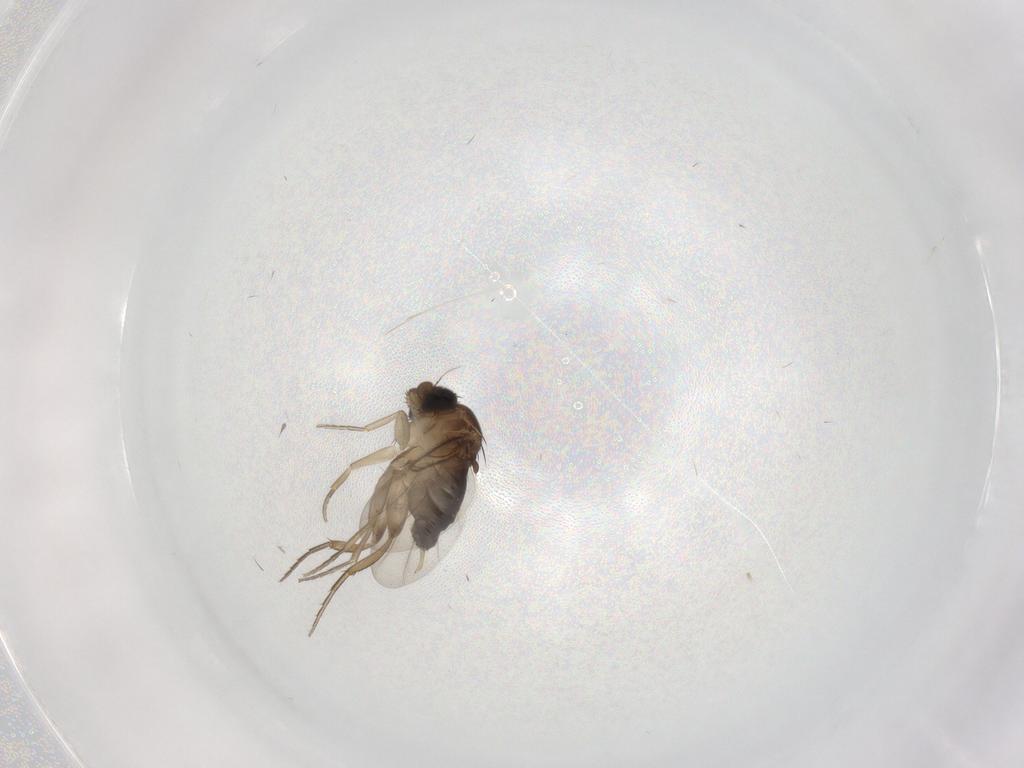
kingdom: Animalia
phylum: Arthropoda
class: Insecta
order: Diptera
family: Phoridae
